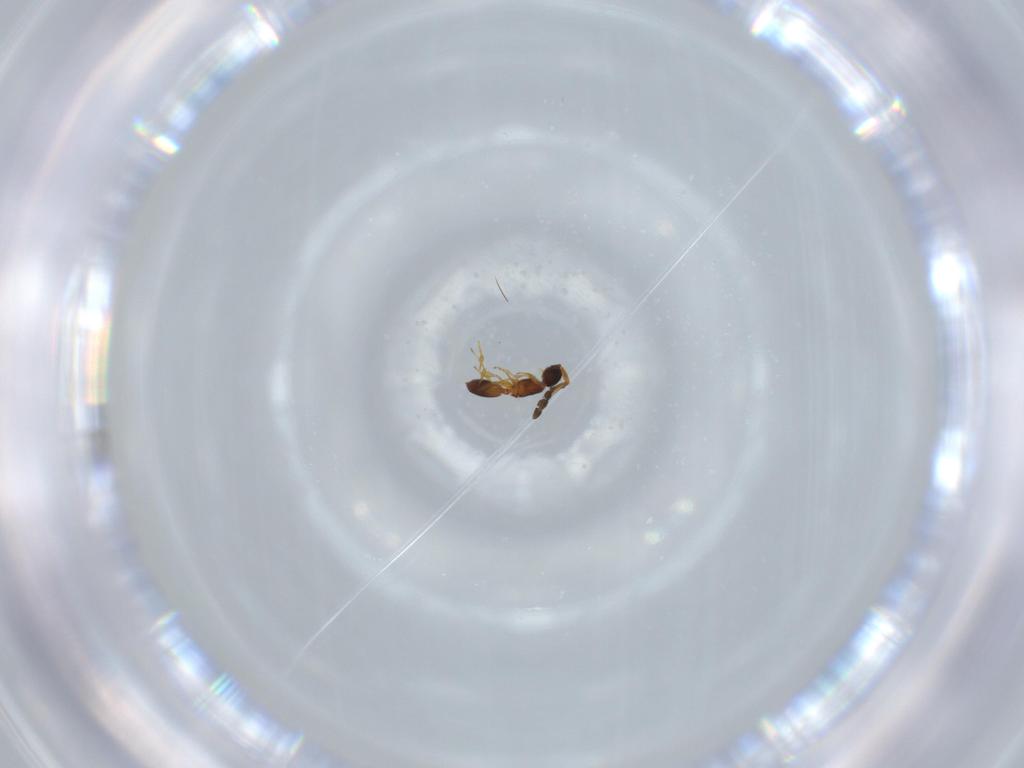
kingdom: Animalia
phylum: Arthropoda
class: Insecta
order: Hymenoptera
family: Diapriidae
